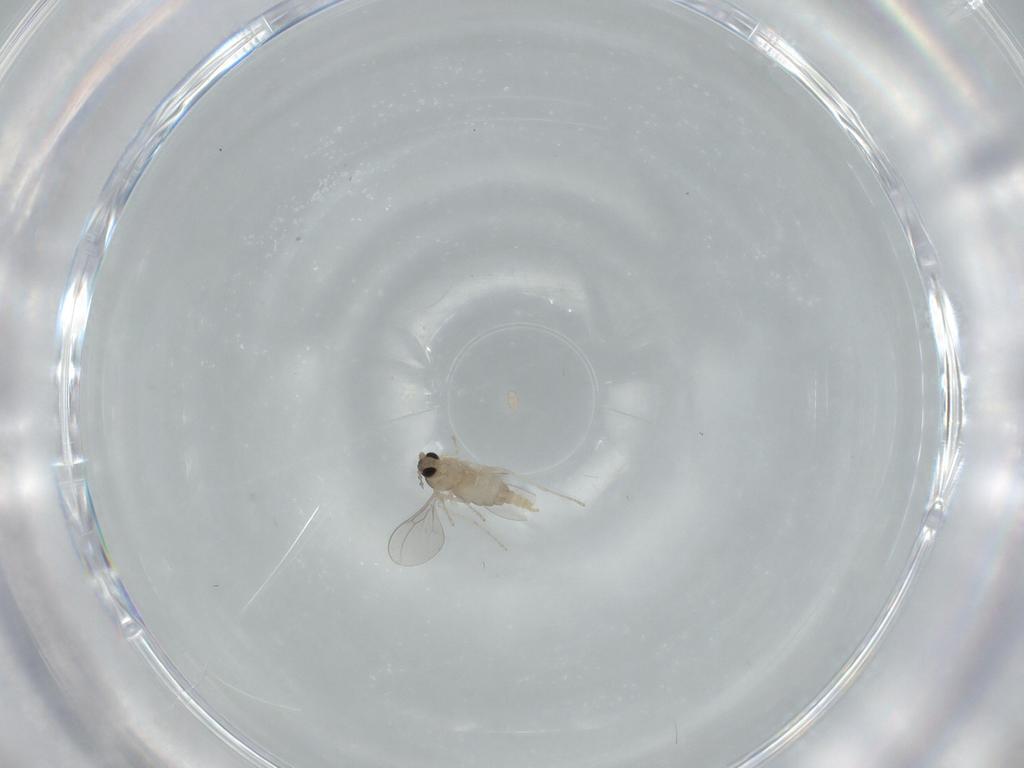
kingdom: Animalia
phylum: Arthropoda
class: Insecta
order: Diptera
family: Cecidomyiidae
